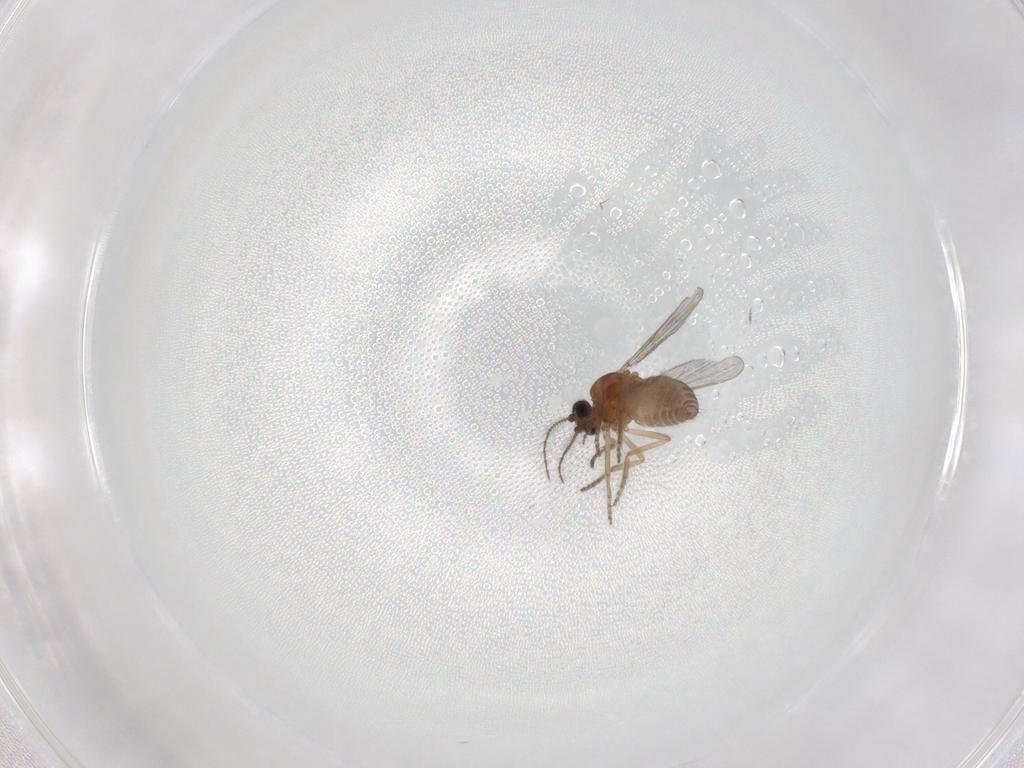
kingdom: Animalia
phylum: Arthropoda
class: Insecta
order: Diptera
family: Ceratopogonidae
